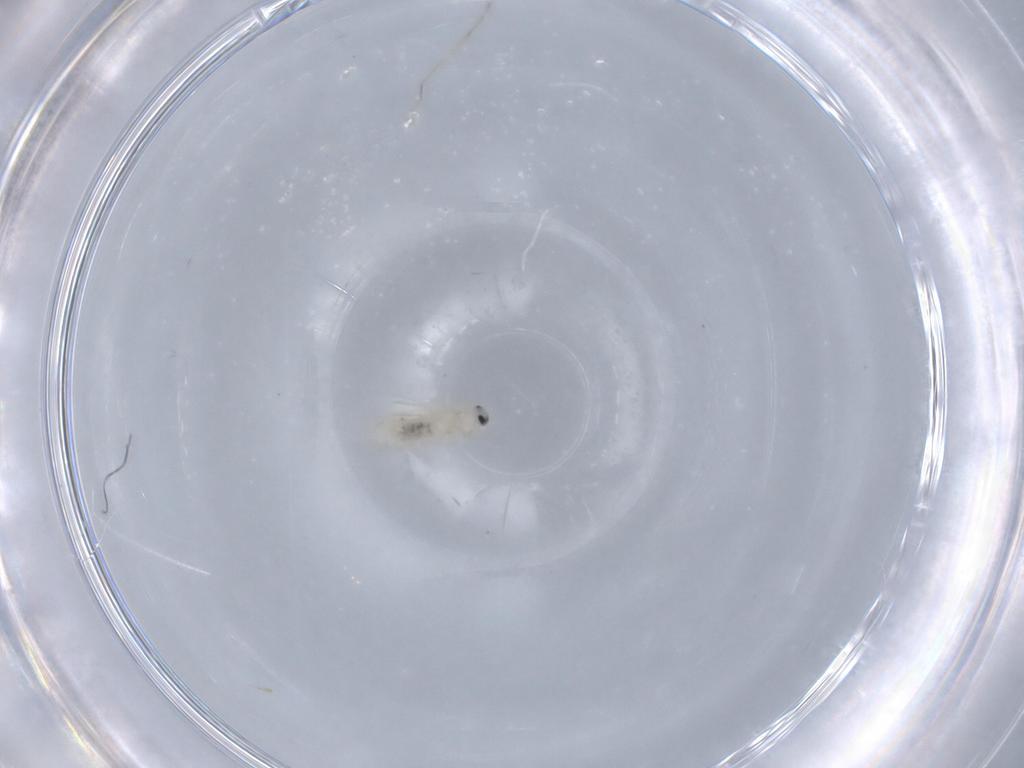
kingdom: Animalia
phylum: Arthropoda
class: Insecta
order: Diptera
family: Cecidomyiidae
